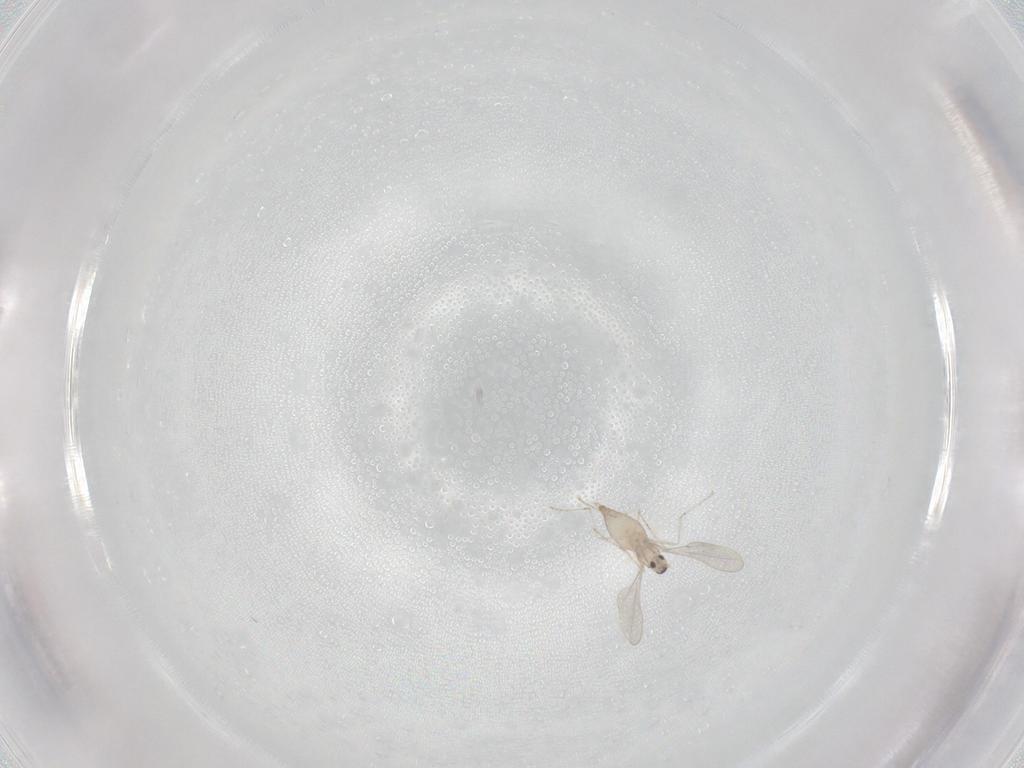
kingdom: Animalia
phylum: Arthropoda
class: Insecta
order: Diptera
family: Cecidomyiidae
